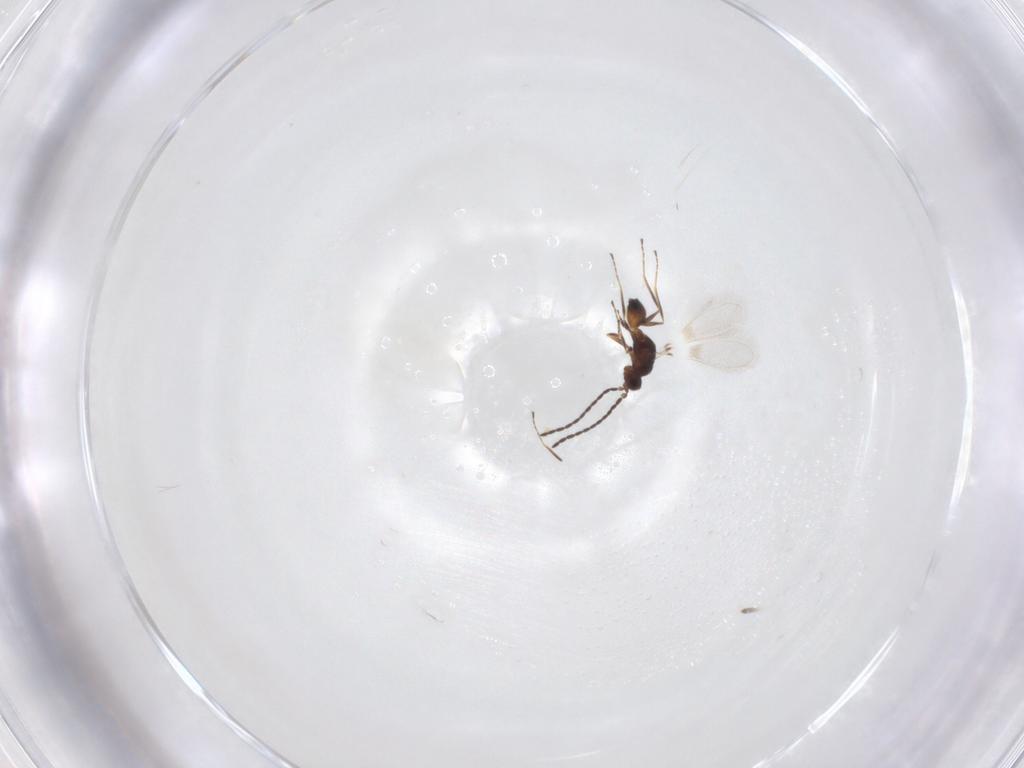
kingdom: Animalia
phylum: Arthropoda
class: Insecta
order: Hymenoptera
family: Encyrtidae
